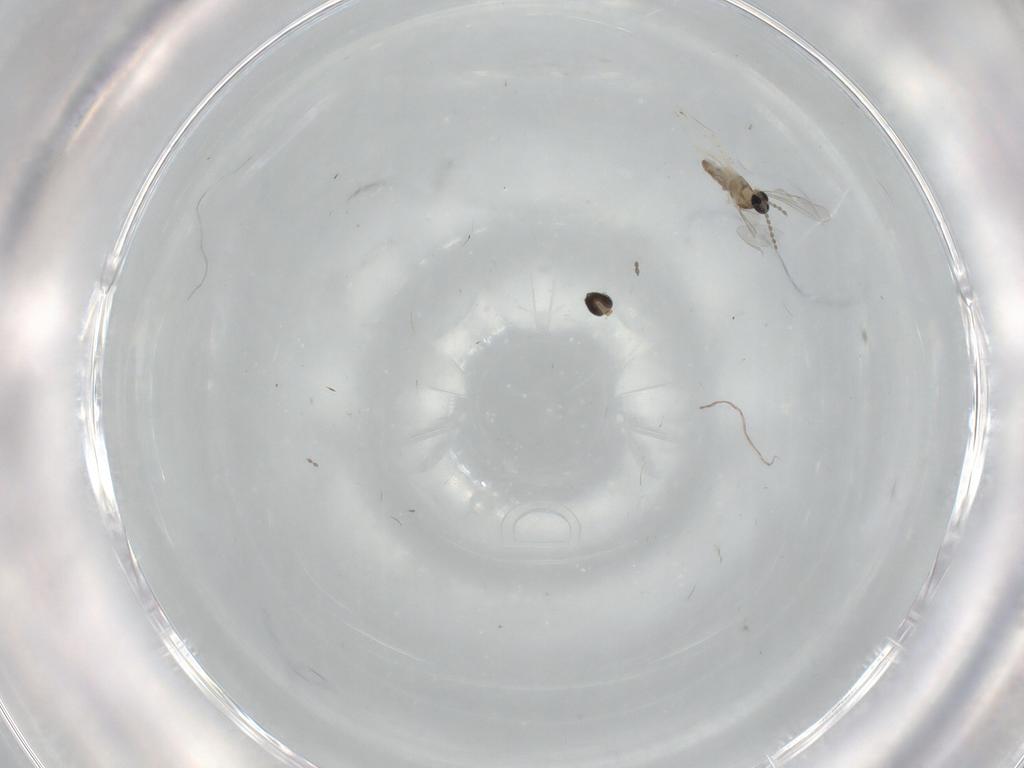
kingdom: Animalia
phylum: Arthropoda
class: Insecta
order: Diptera
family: Cecidomyiidae
